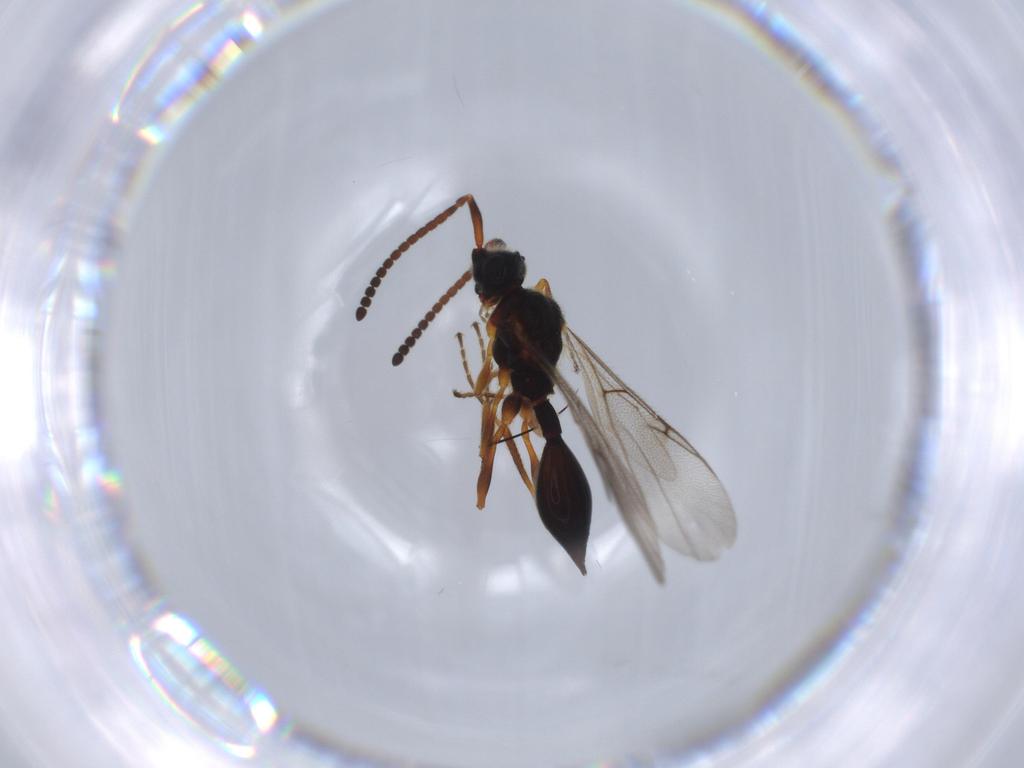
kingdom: Animalia
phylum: Arthropoda
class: Insecta
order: Hymenoptera
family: Diapriidae
